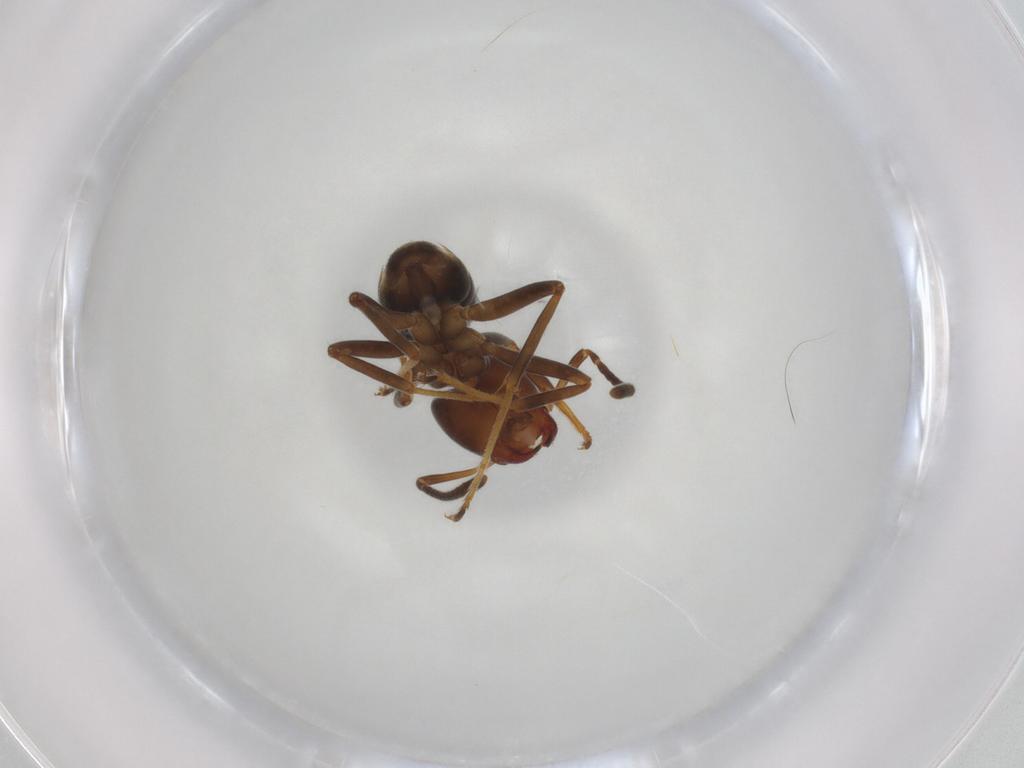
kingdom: Animalia
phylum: Arthropoda
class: Insecta
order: Hymenoptera
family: Formicidae
